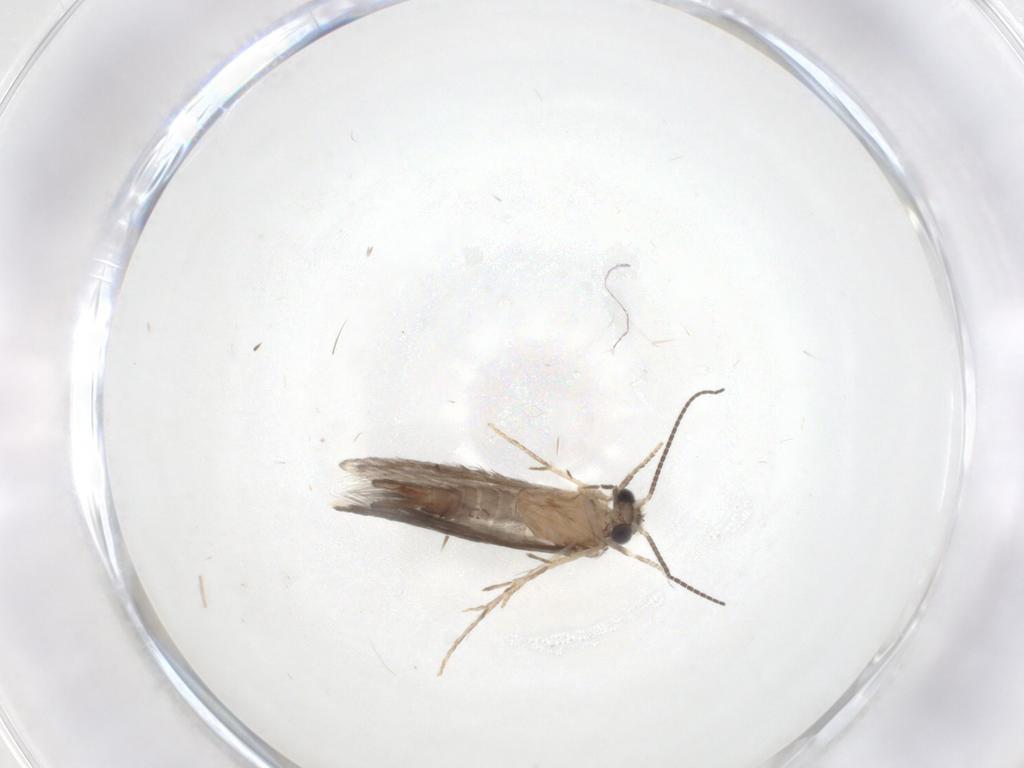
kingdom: Animalia
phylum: Arthropoda
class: Insecta
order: Trichoptera
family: Hydroptilidae
